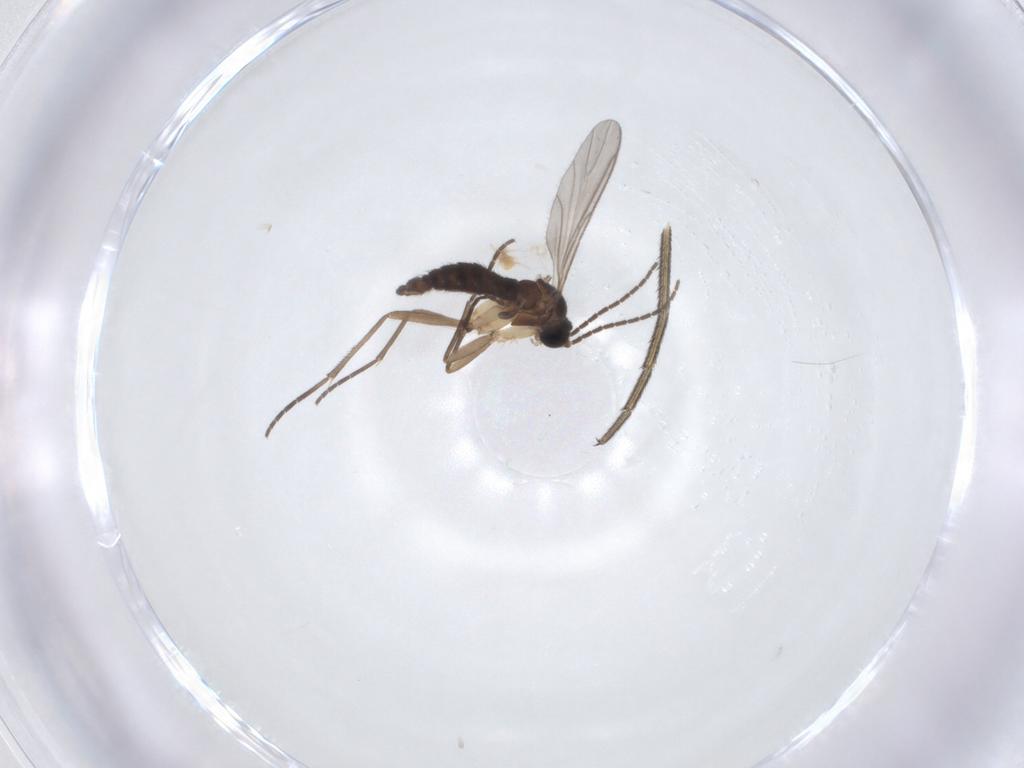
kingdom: Animalia
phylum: Arthropoda
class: Insecta
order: Diptera
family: Sciaridae
